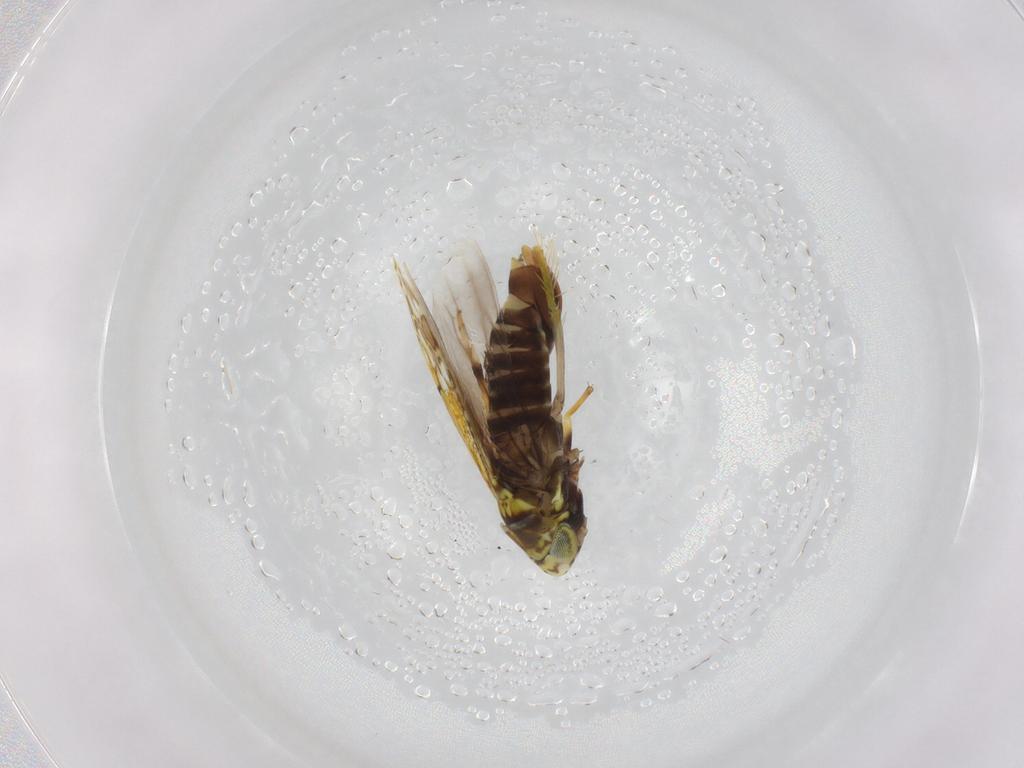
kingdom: Animalia
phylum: Arthropoda
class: Insecta
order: Hemiptera
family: Cicadellidae
